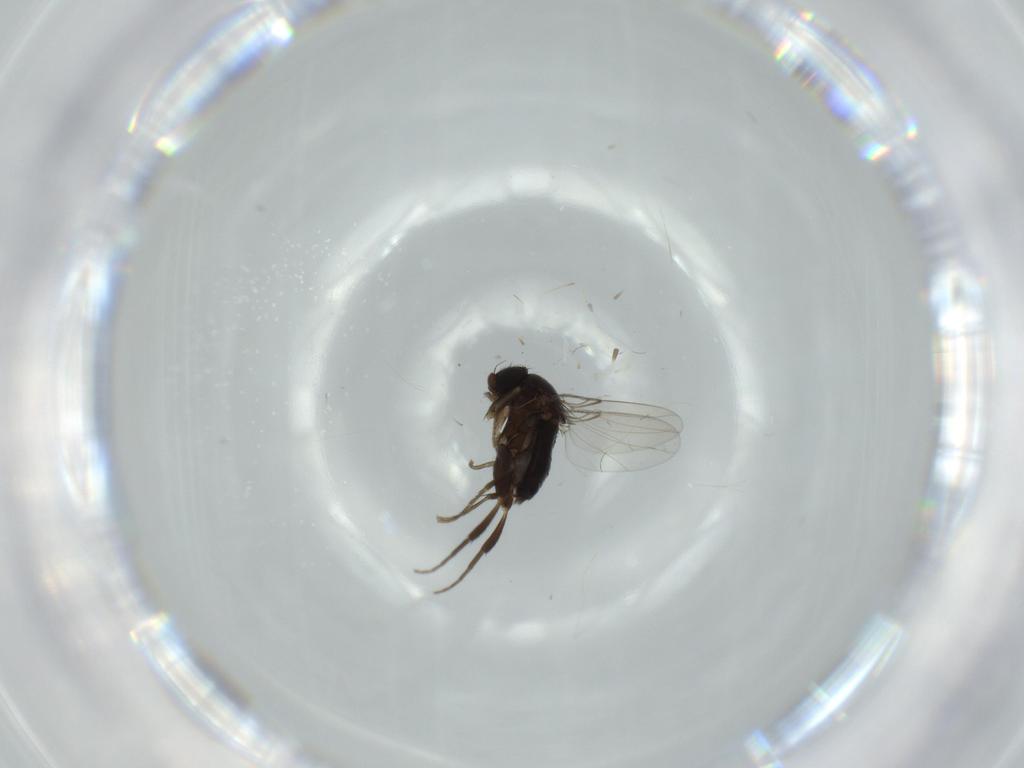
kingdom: Animalia
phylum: Arthropoda
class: Insecta
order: Diptera
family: Phoridae
